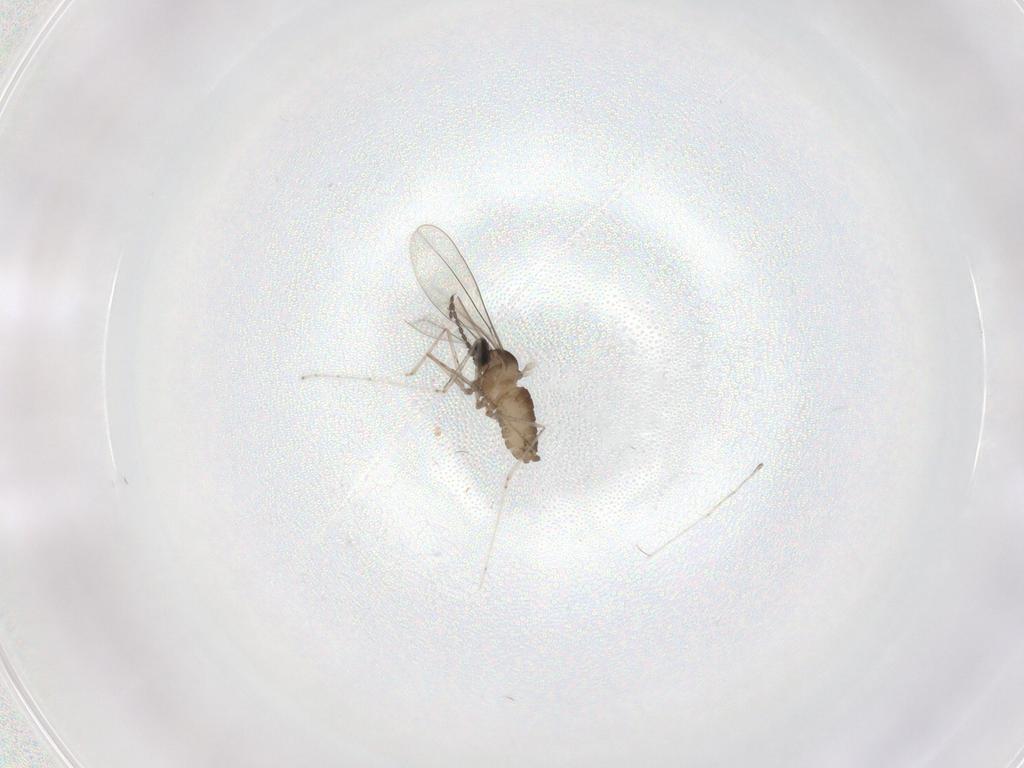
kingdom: Animalia
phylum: Arthropoda
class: Insecta
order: Diptera
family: Cecidomyiidae
